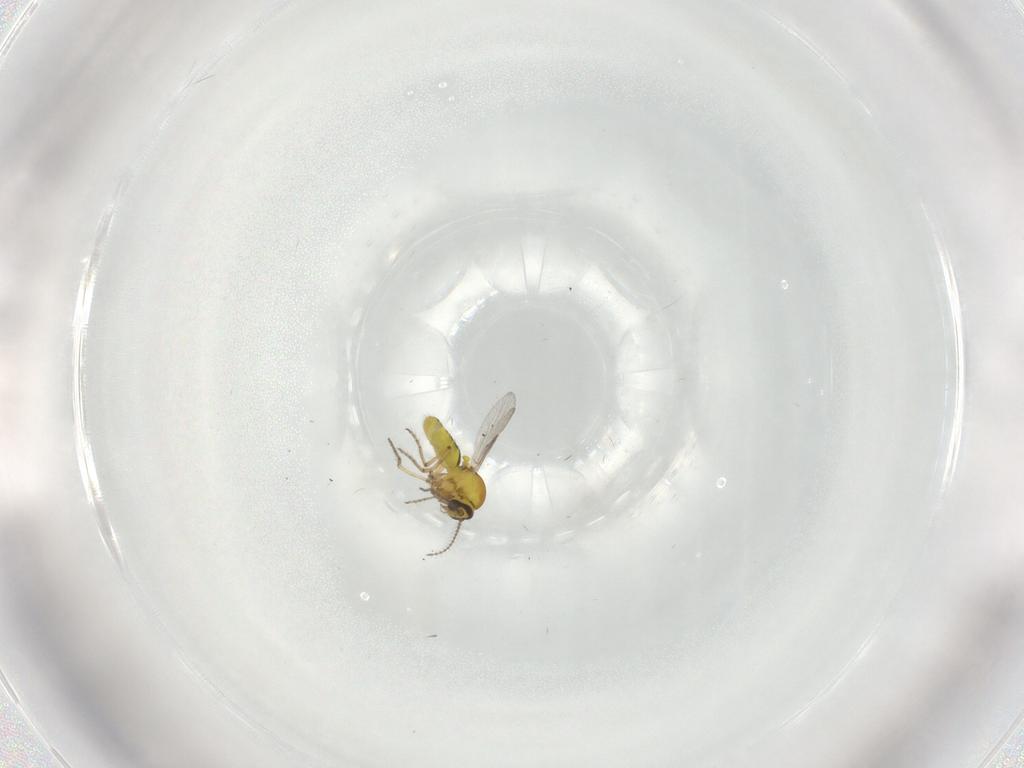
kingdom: Animalia
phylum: Arthropoda
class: Insecta
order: Diptera
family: Ceratopogonidae
